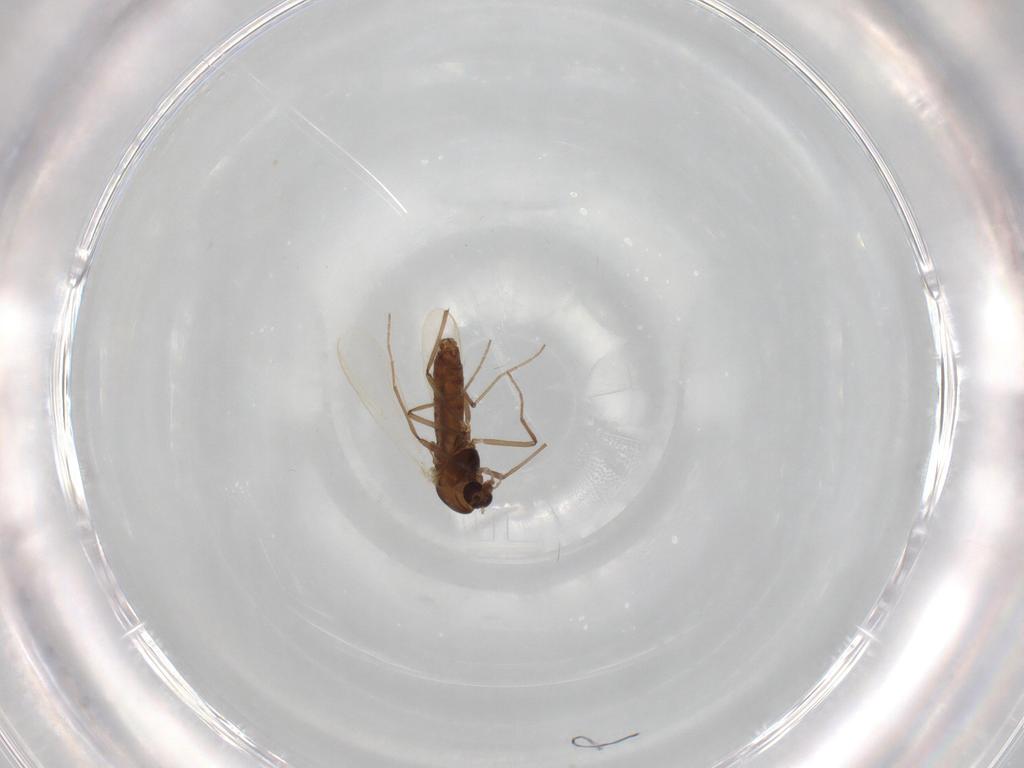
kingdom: Animalia
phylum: Arthropoda
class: Insecta
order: Diptera
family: Chironomidae
